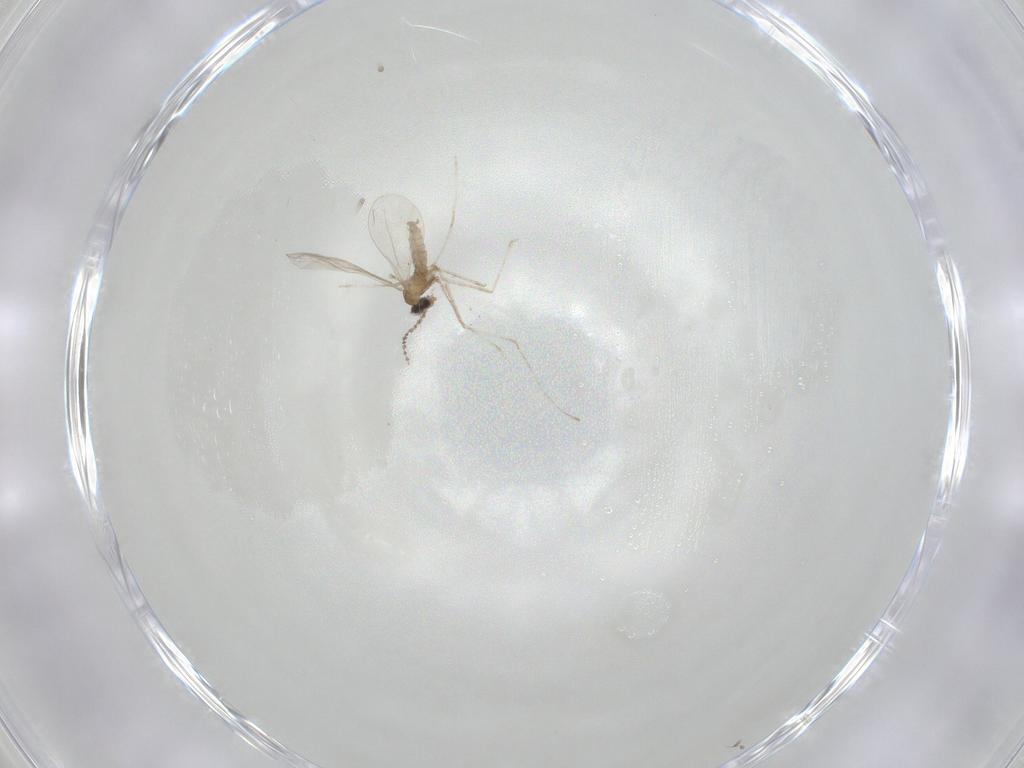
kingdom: Animalia
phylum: Arthropoda
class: Insecta
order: Diptera
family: Cecidomyiidae
